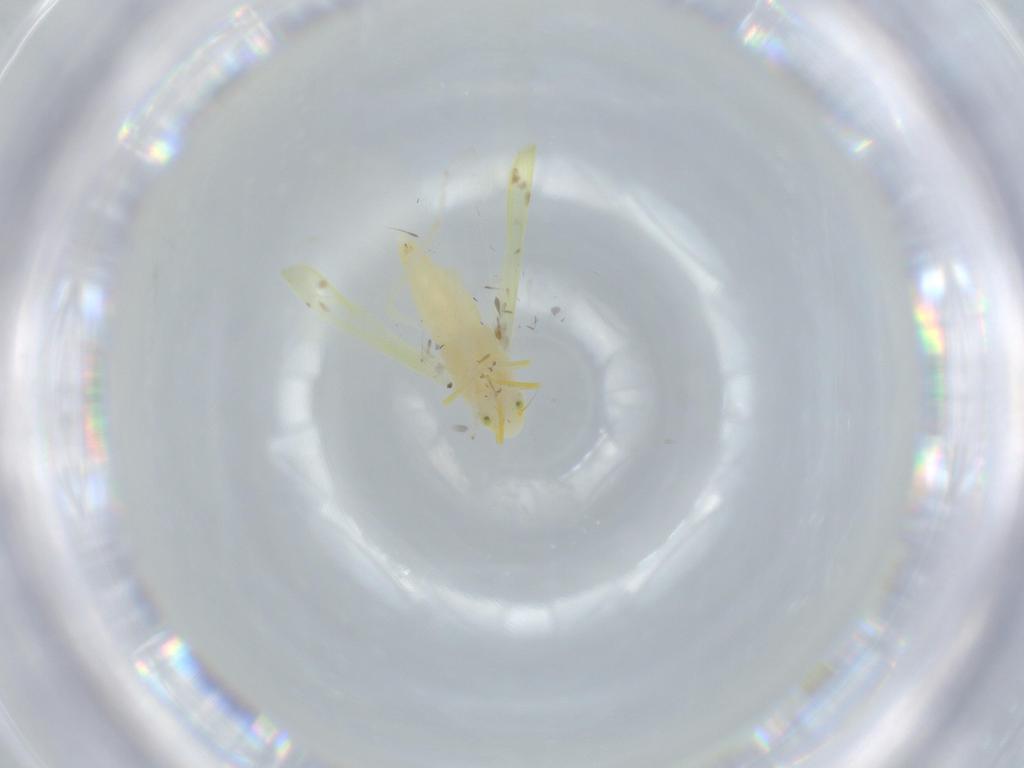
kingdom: Animalia
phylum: Arthropoda
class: Insecta
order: Hemiptera
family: Cicadellidae
